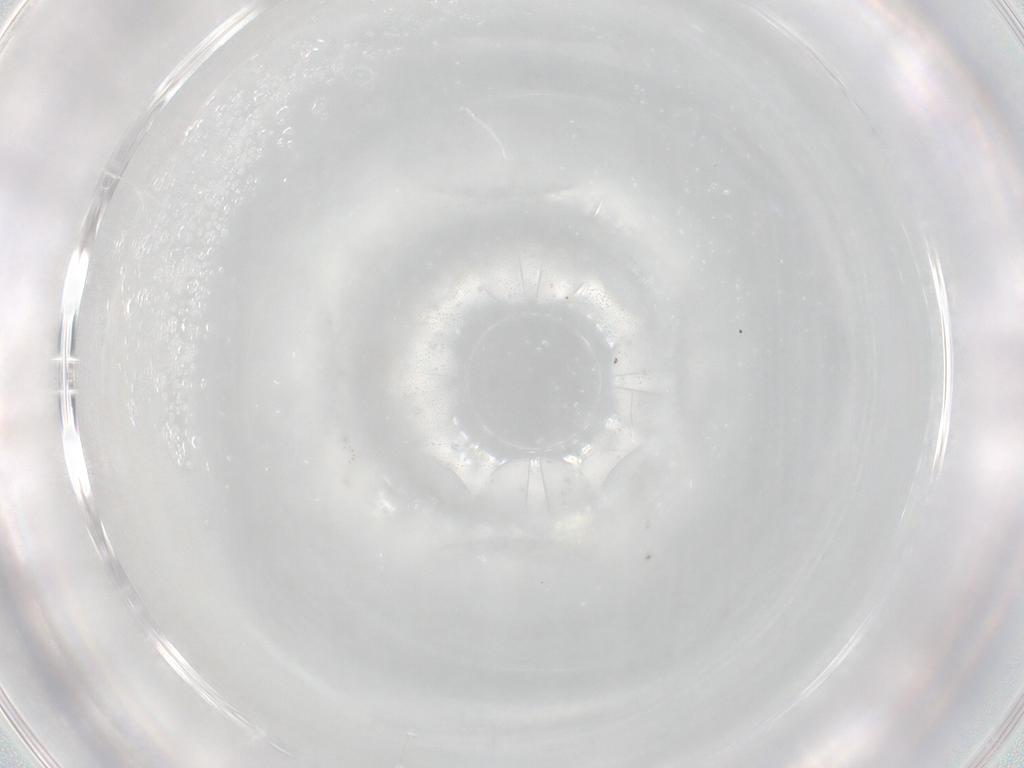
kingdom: Animalia
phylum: Arthropoda
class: Insecta
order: Diptera
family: Cecidomyiidae
